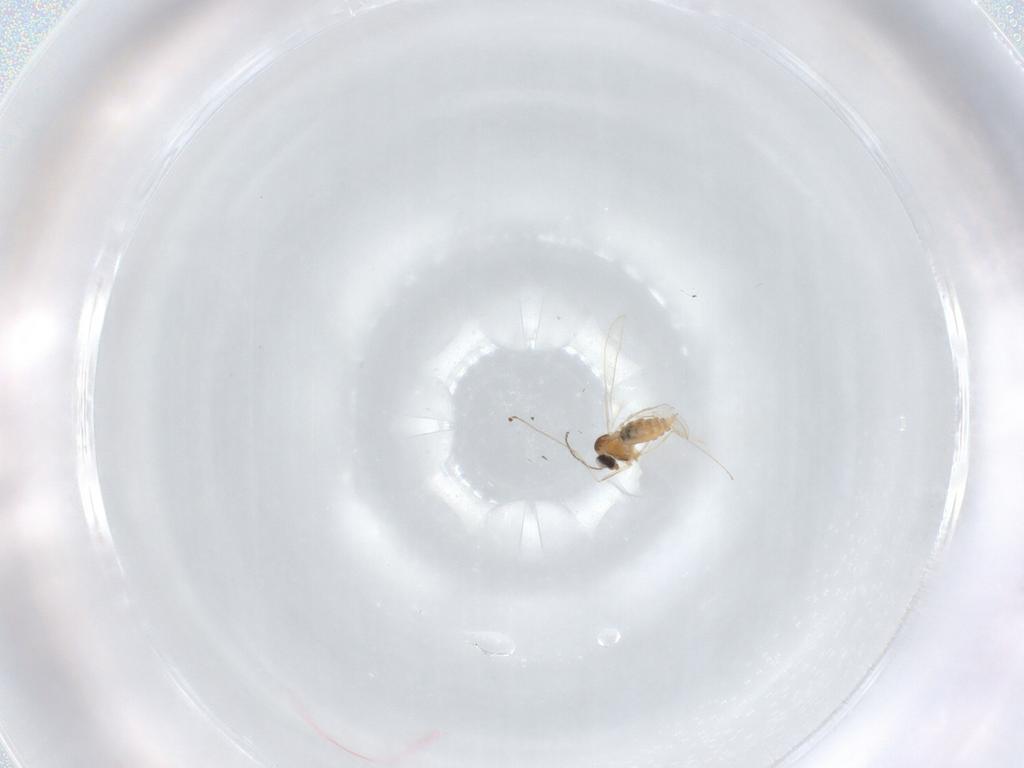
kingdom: Animalia
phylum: Arthropoda
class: Insecta
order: Diptera
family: Cecidomyiidae
